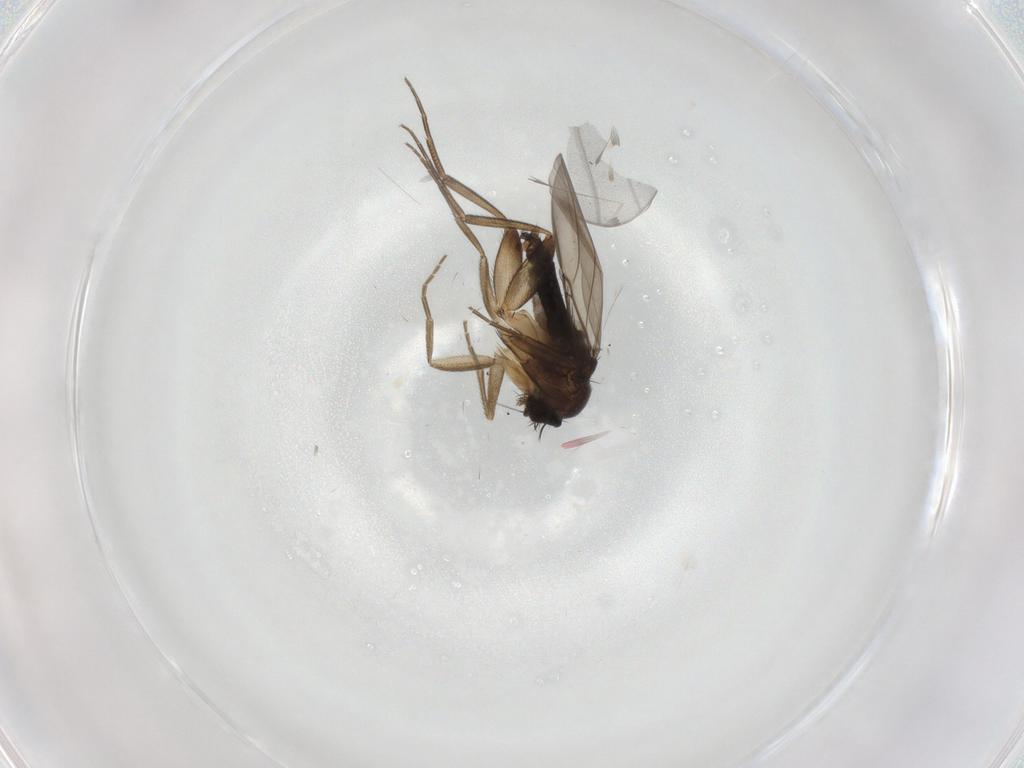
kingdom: Animalia
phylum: Arthropoda
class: Insecta
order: Diptera
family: Phoridae
